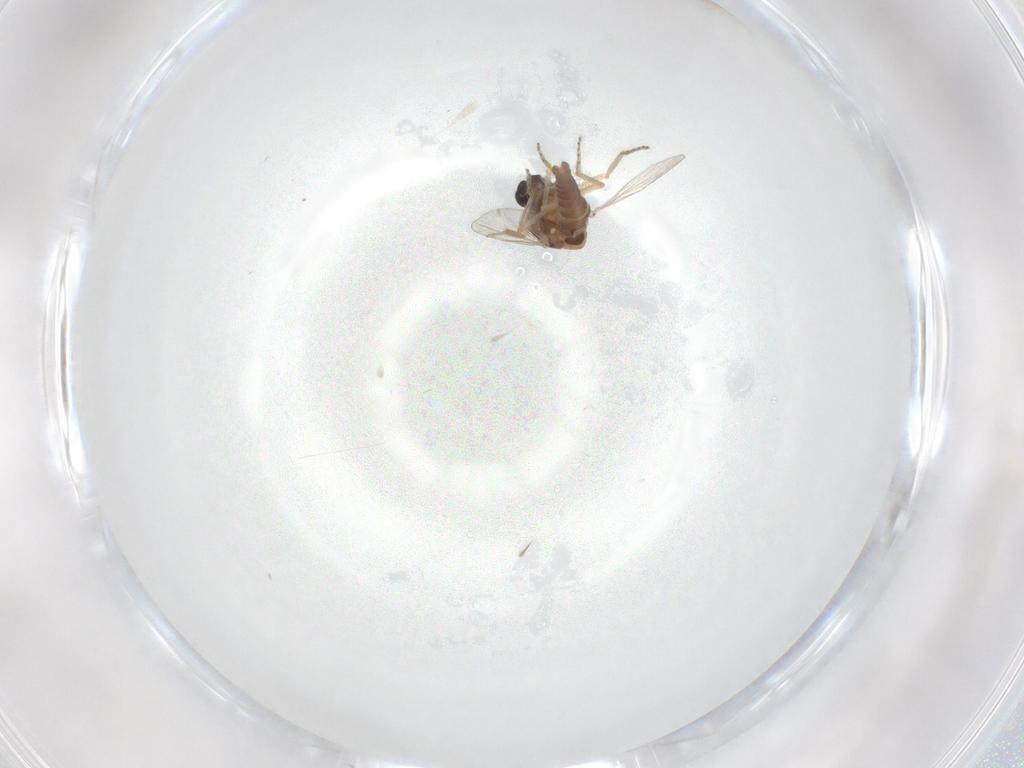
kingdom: Animalia
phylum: Arthropoda
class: Insecta
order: Diptera
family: Ceratopogonidae
